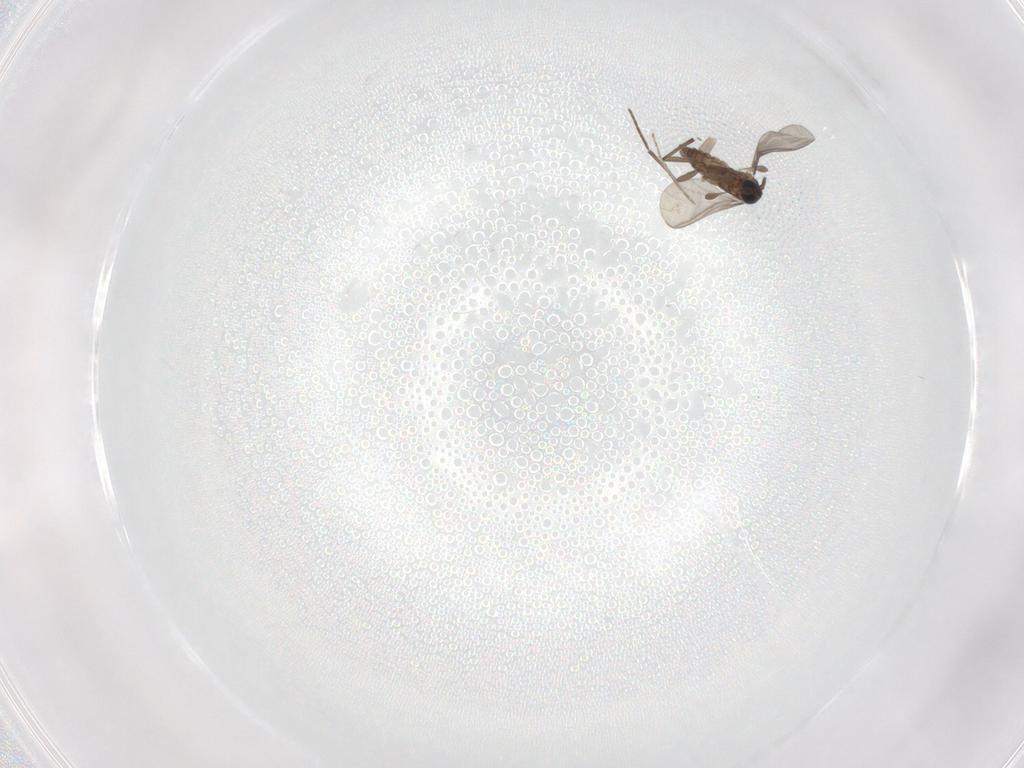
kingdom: Animalia
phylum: Arthropoda
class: Insecta
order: Diptera
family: Chironomidae
